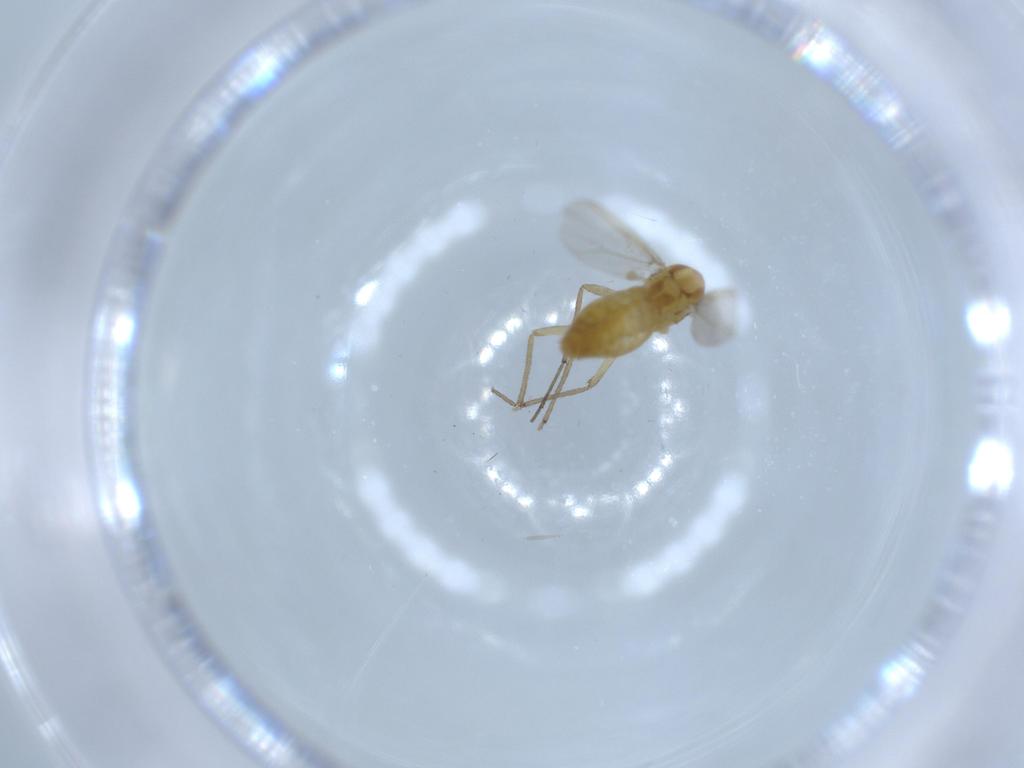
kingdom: Animalia
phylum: Arthropoda
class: Insecta
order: Diptera
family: Chironomidae
